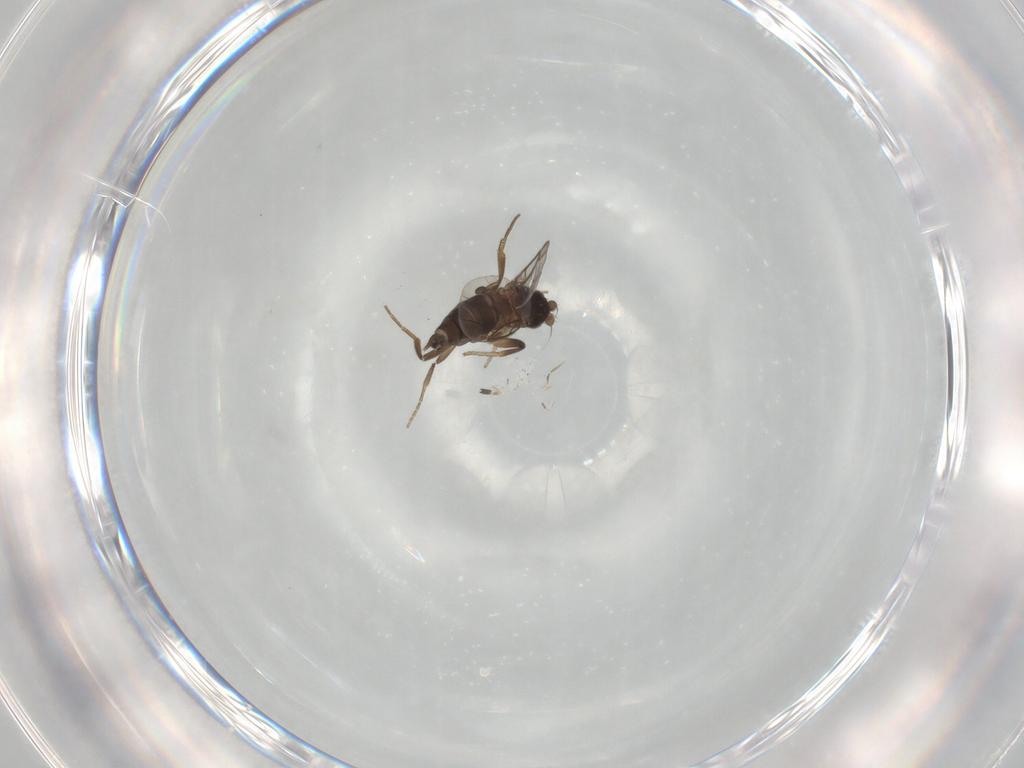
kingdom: Animalia
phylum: Arthropoda
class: Insecta
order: Diptera
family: Phoridae
